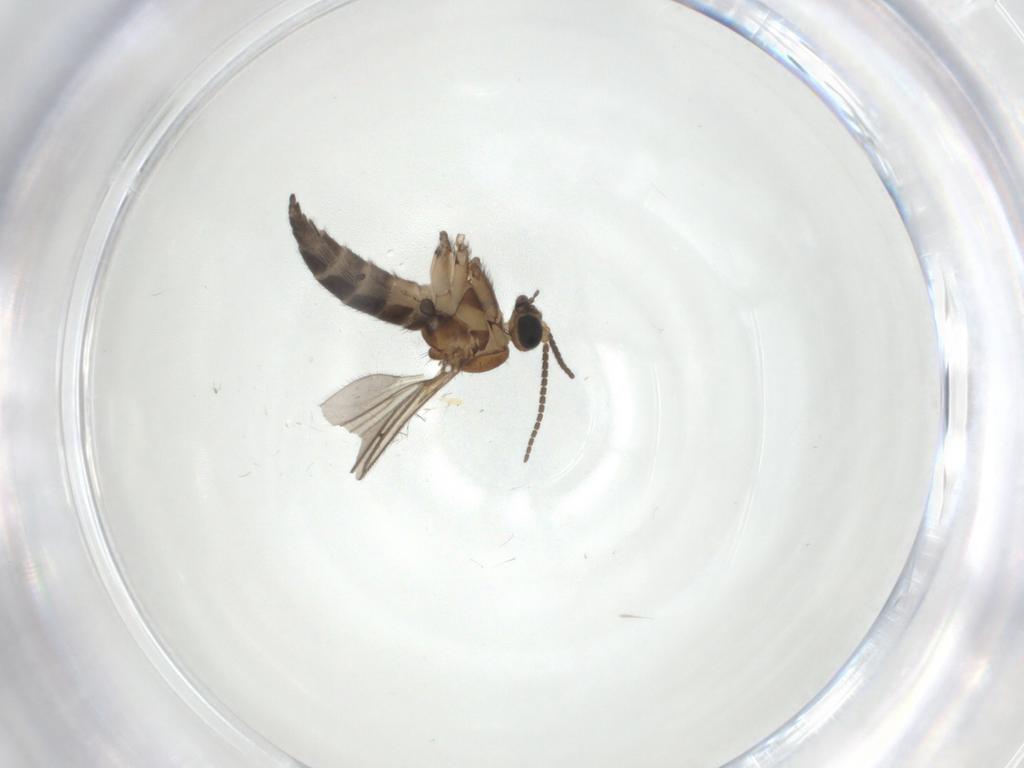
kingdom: Animalia
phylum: Arthropoda
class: Insecta
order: Diptera
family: Sciaridae
